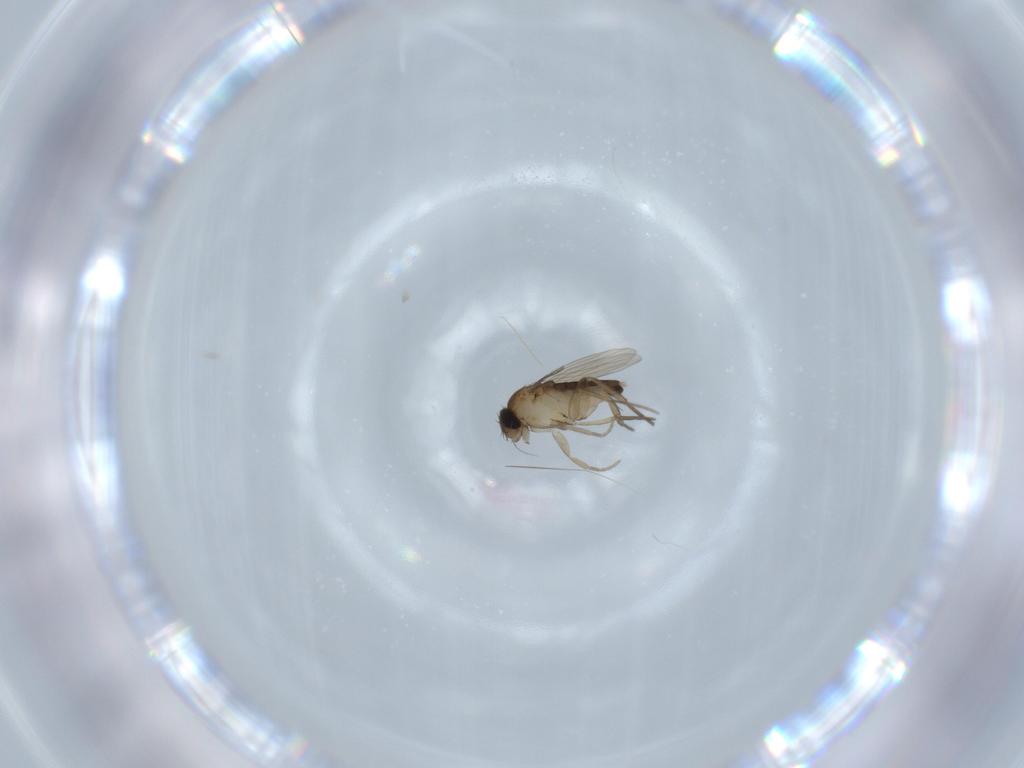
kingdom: Animalia
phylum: Arthropoda
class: Insecta
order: Diptera
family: Phoridae
